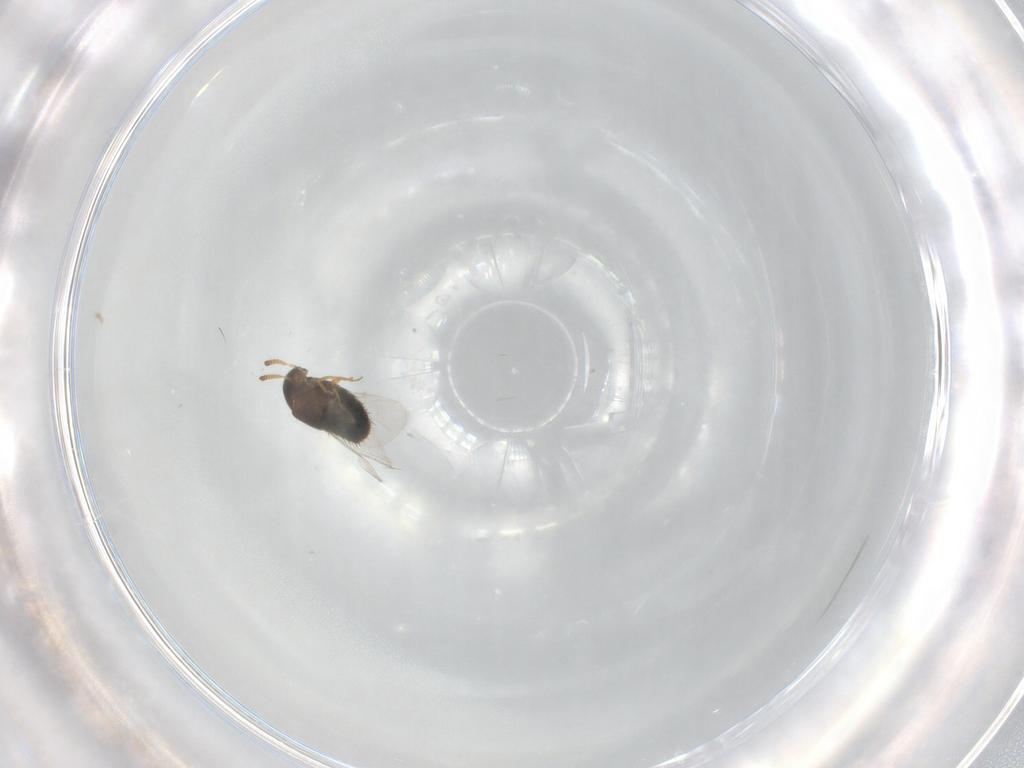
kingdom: Animalia
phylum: Arthropoda
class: Insecta
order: Coleoptera
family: Staphylinidae
